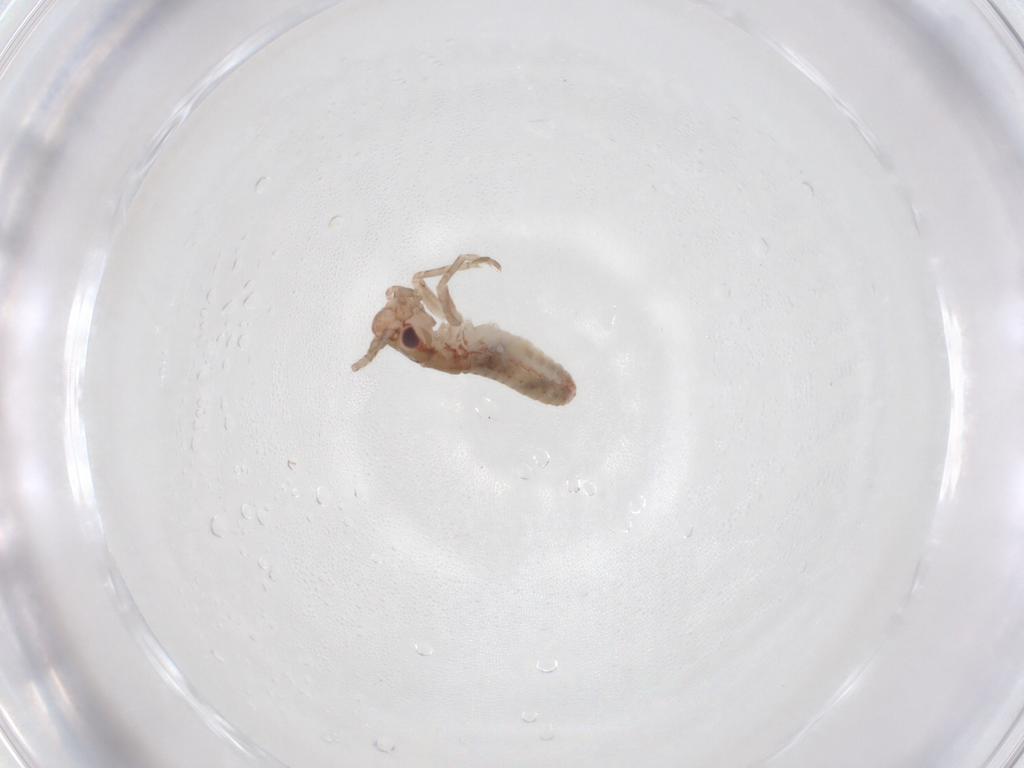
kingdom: Animalia
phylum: Arthropoda
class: Insecta
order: Orthoptera
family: Mogoplistidae
